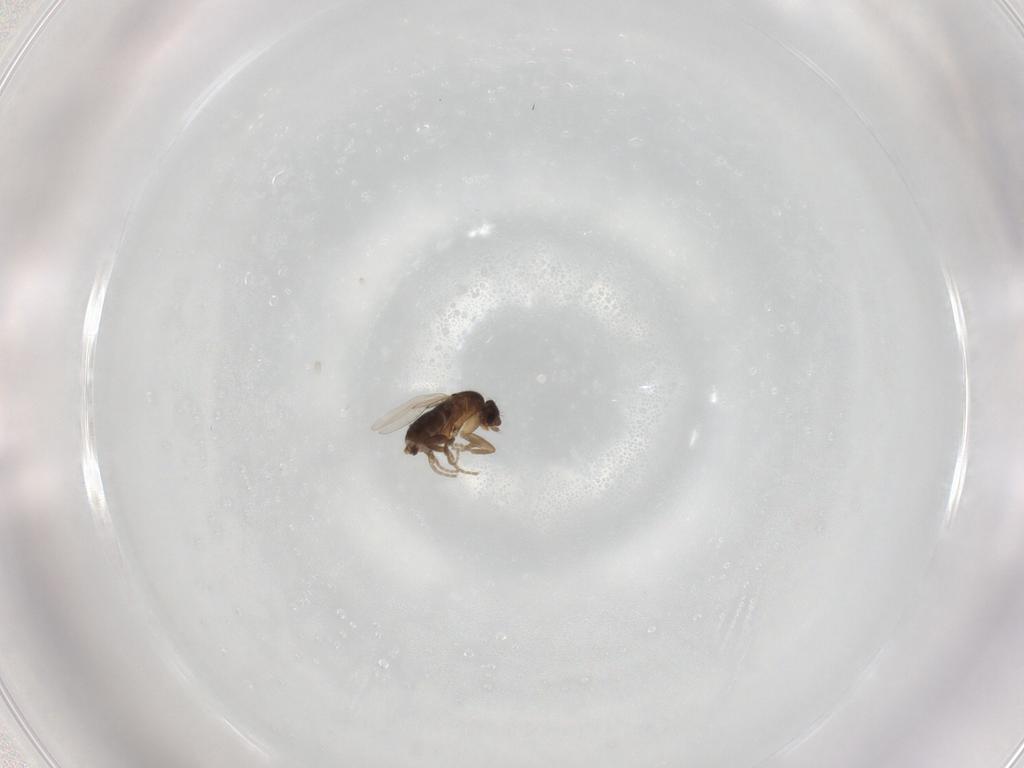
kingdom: Animalia
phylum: Arthropoda
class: Insecta
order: Diptera
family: Phoridae
